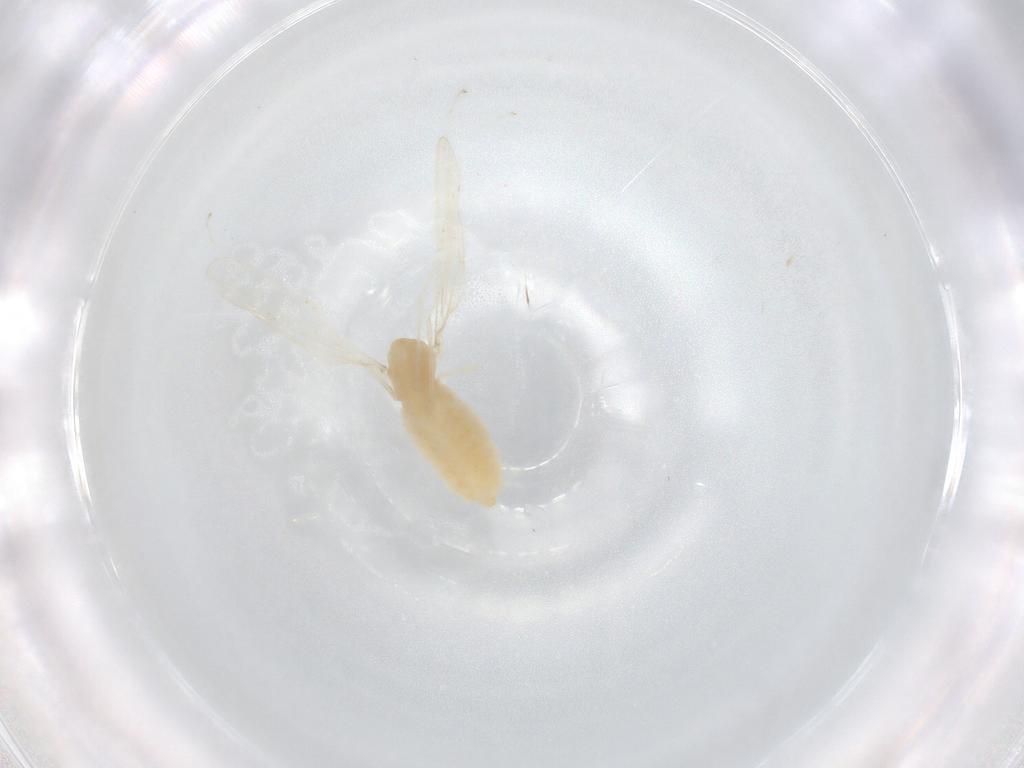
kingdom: Animalia
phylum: Arthropoda
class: Insecta
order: Diptera
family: Cecidomyiidae
